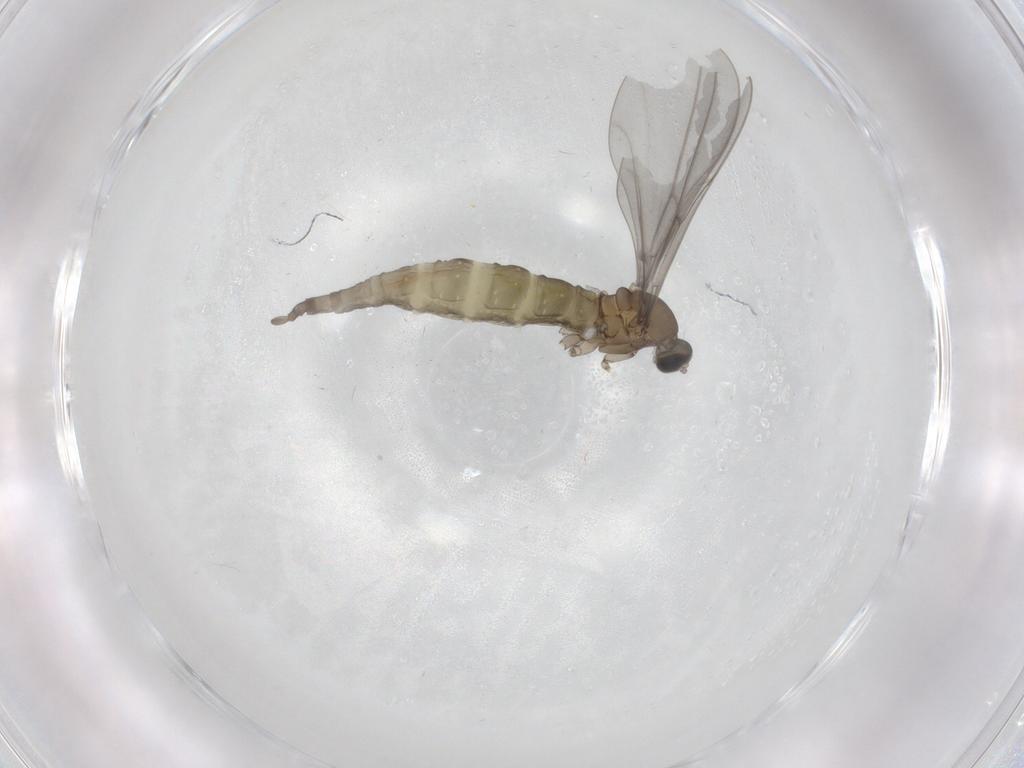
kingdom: Animalia
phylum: Arthropoda
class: Insecta
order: Diptera
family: Cecidomyiidae
